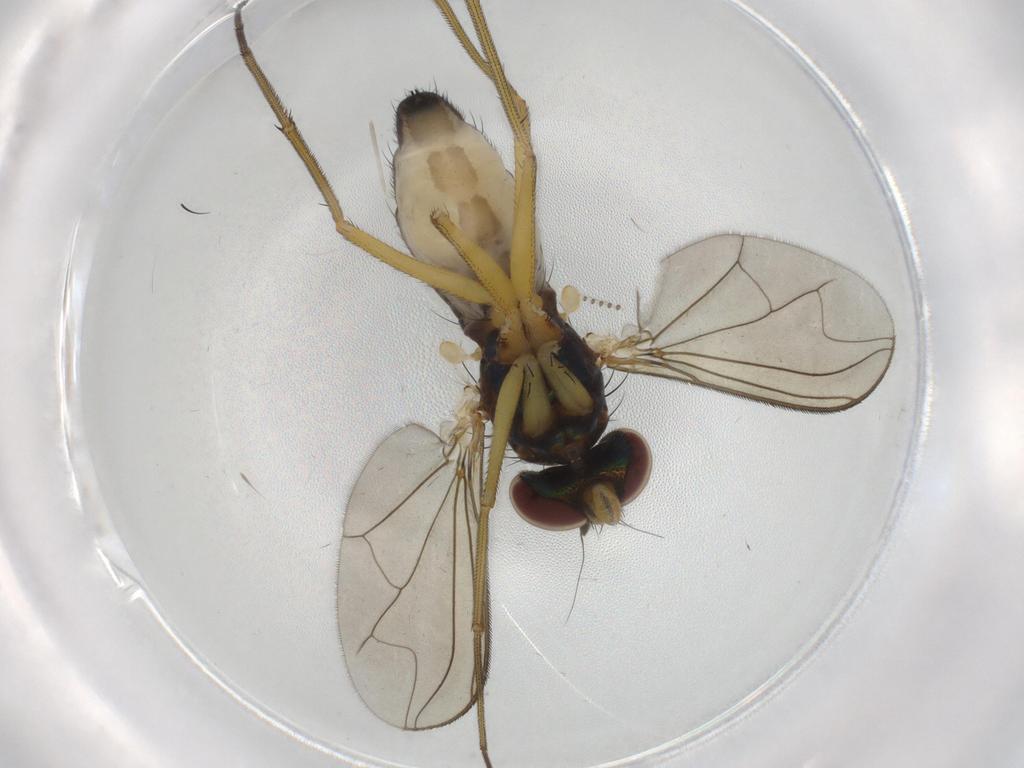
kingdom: Animalia
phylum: Arthropoda
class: Insecta
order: Diptera
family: Dolichopodidae
